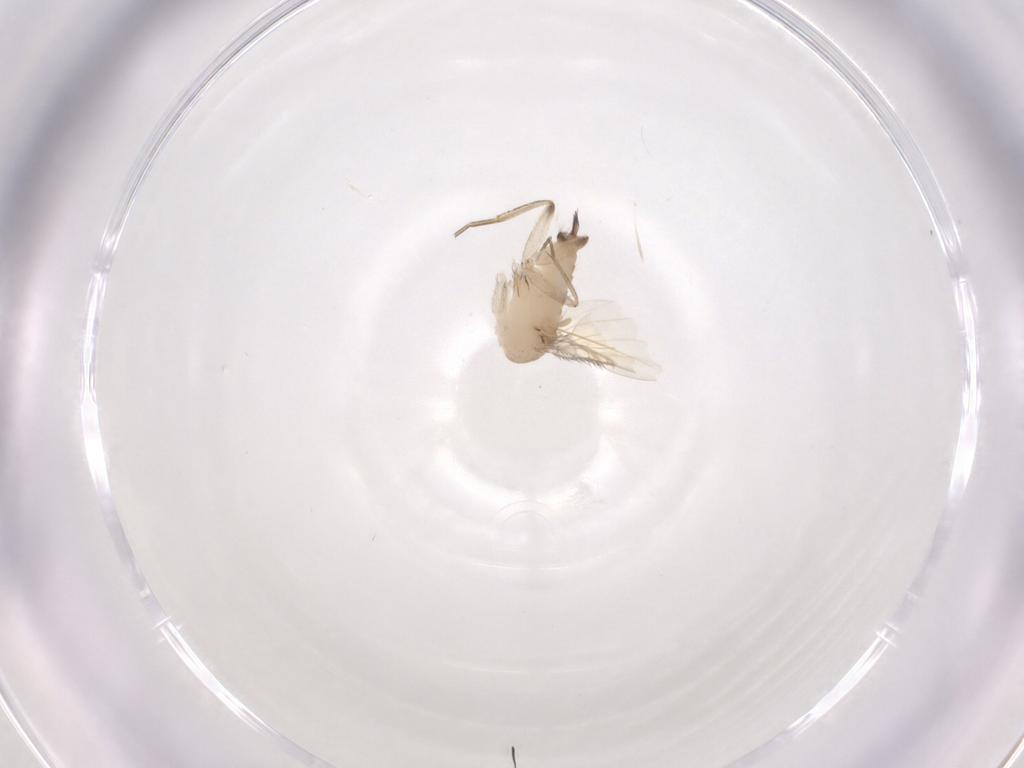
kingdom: Animalia
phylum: Arthropoda
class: Insecta
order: Diptera
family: Phoridae
